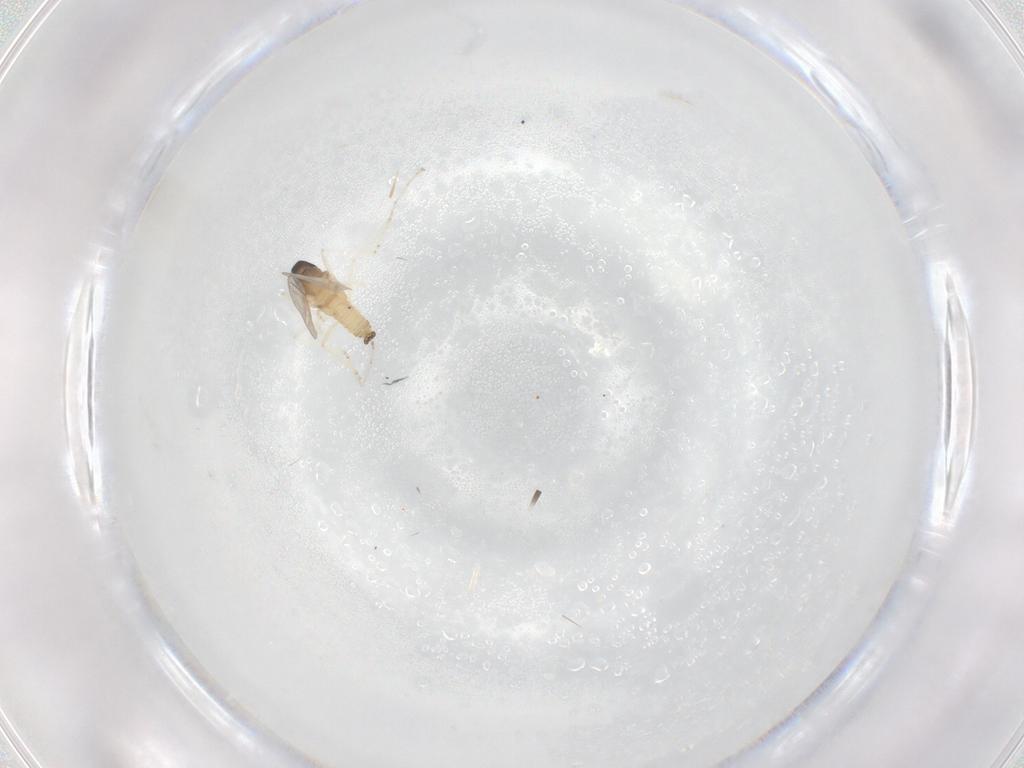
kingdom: Animalia
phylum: Arthropoda
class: Insecta
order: Diptera
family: Cecidomyiidae
